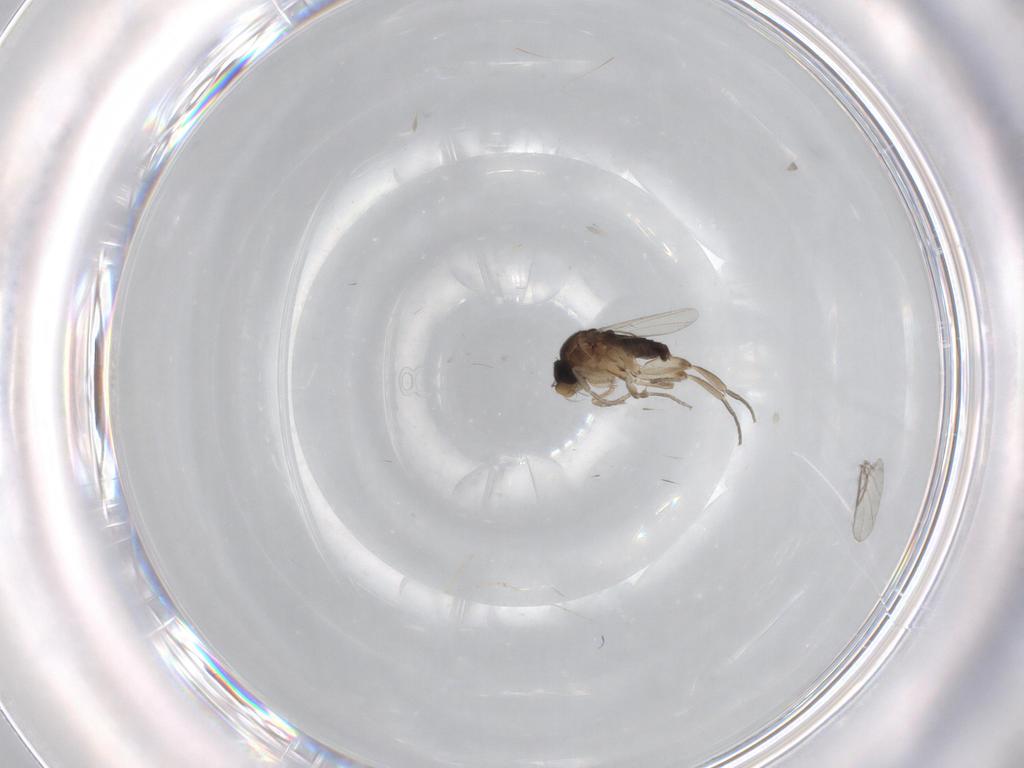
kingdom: Animalia
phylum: Arthropoda
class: Insecta
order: Diptera
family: Phoridae
